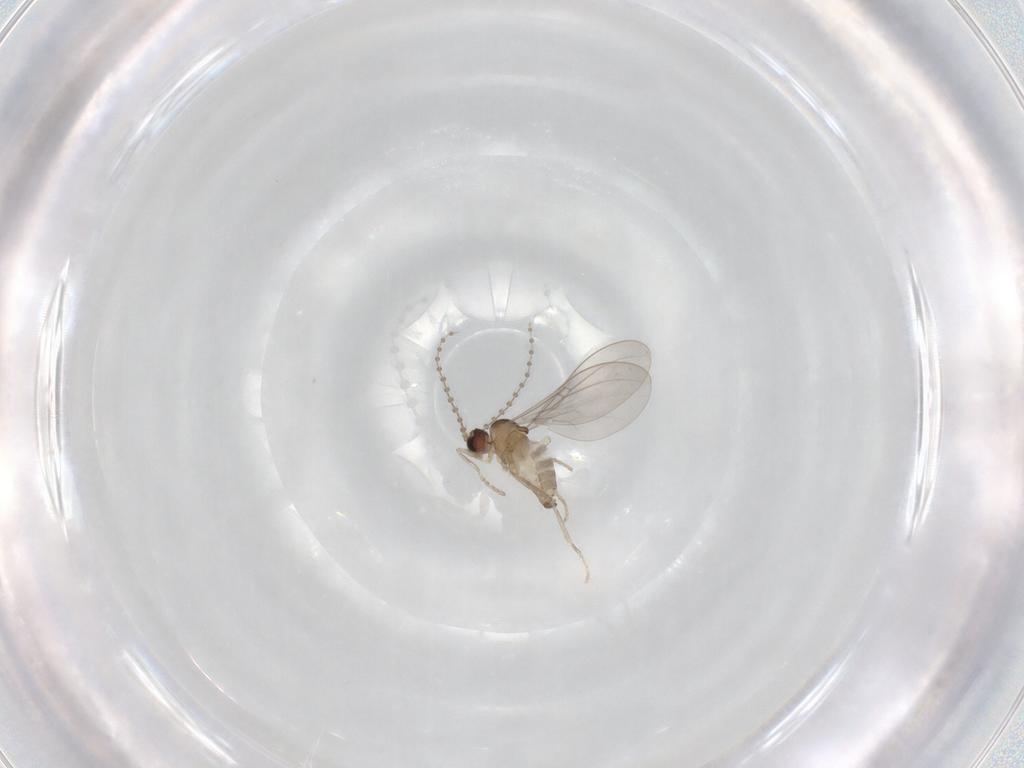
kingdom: Animalia
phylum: Arthropoda
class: Insecta
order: Diptera
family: Cecidomyiidae
